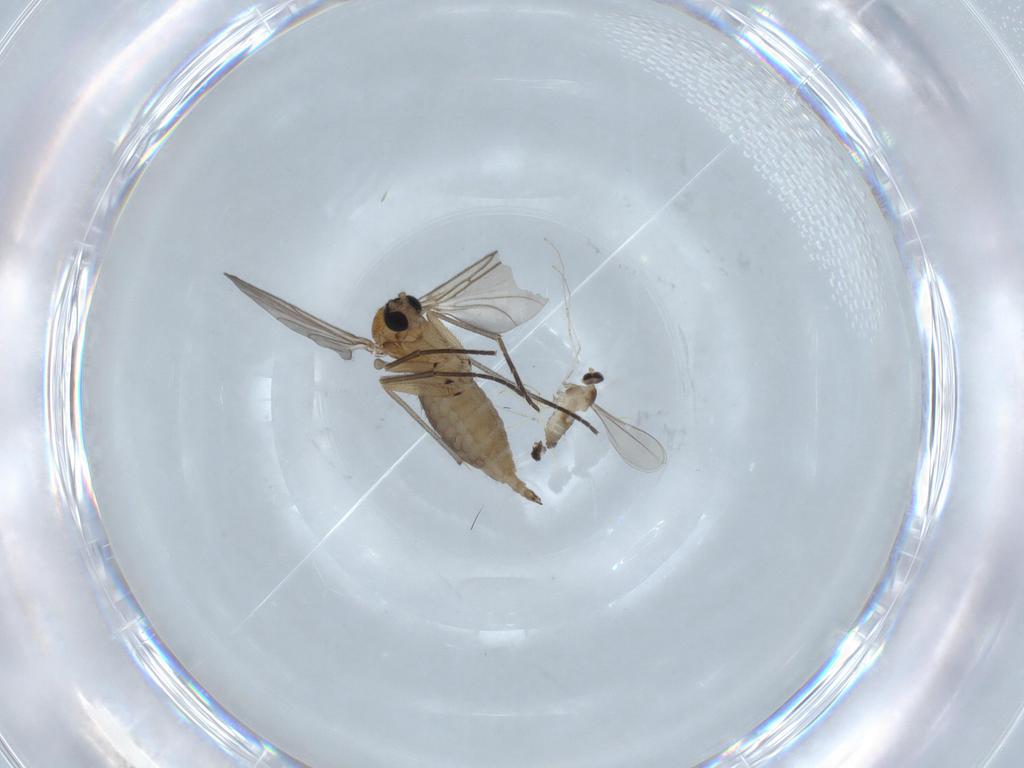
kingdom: Animalia
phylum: Arthropoda
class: Insecta
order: Diptera
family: Cecidomyiidae
